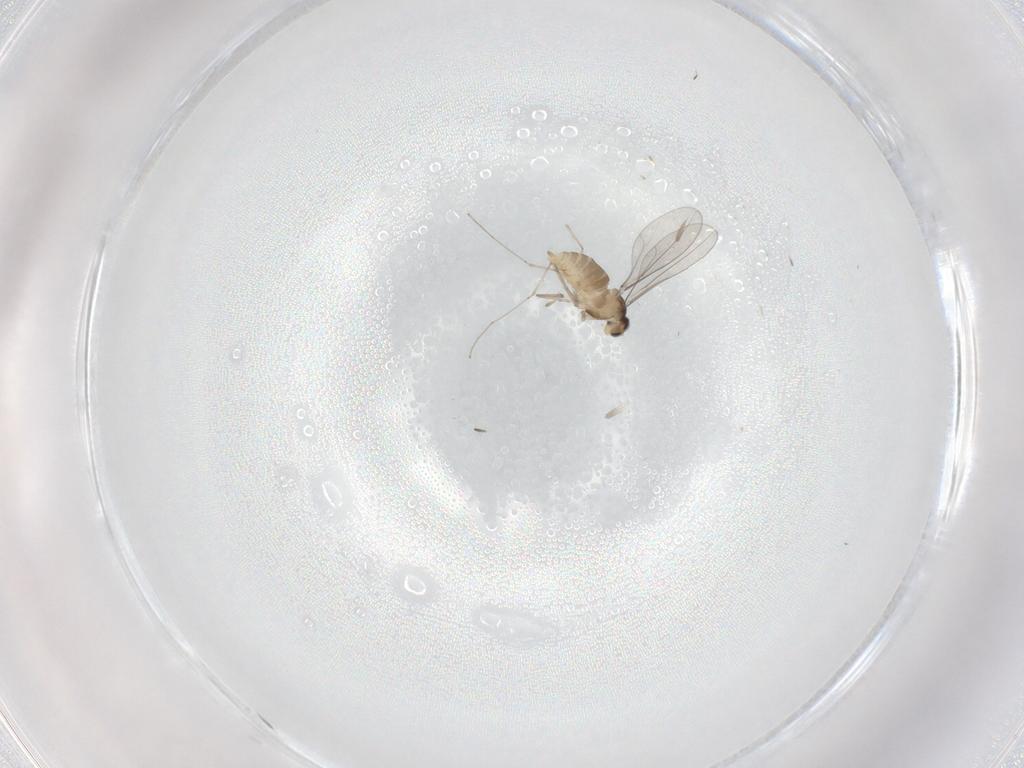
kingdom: Animalia
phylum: Arthropoda
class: Insecta
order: Diptera
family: Cecidomyiidae
